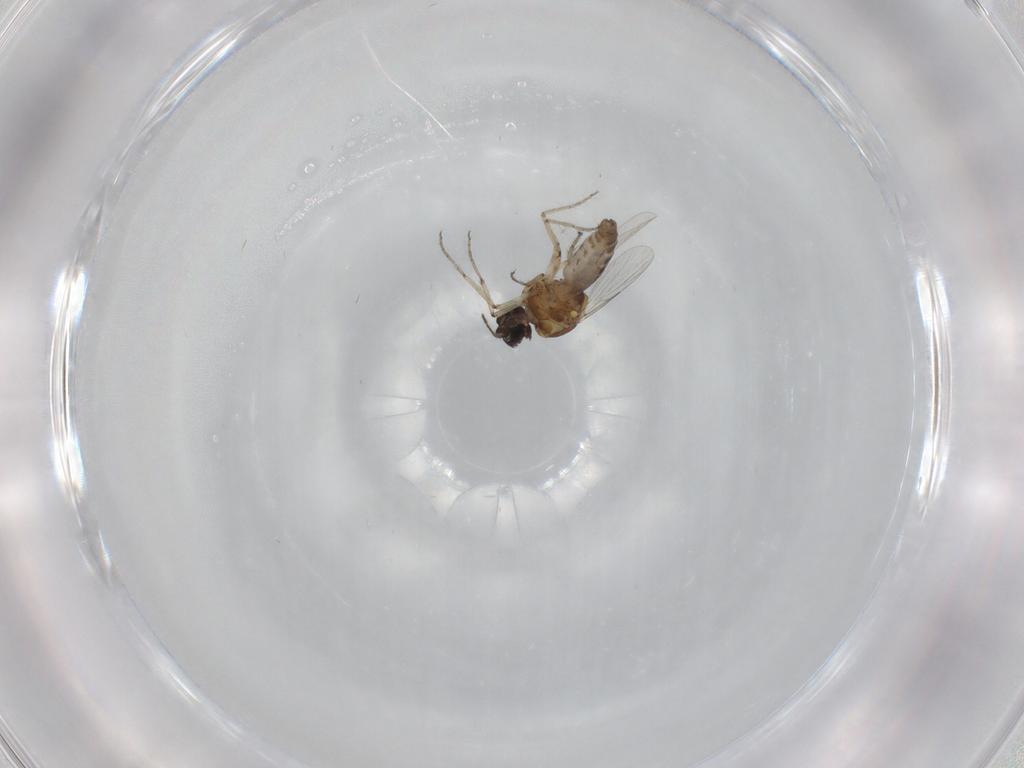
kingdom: Animalia
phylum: Arthropoda
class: Insecta
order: Diptera
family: Ceratopogonidae
